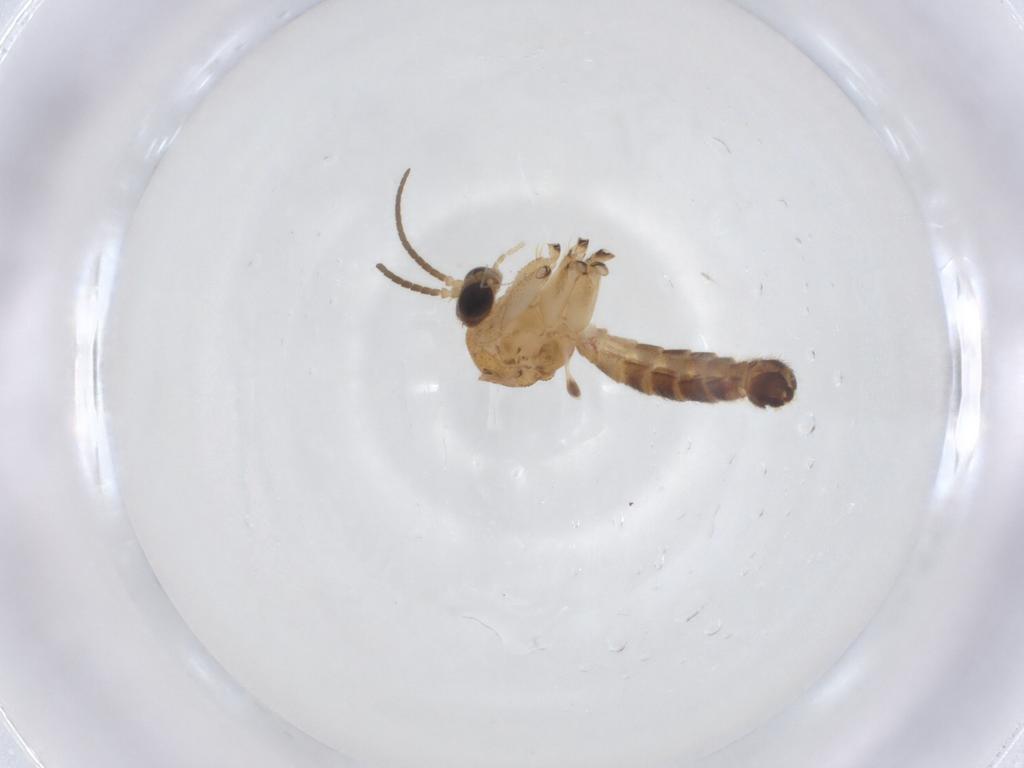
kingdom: Animalia
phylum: Arthropoda
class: Insecta
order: Diptera
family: Mycetophilidae
